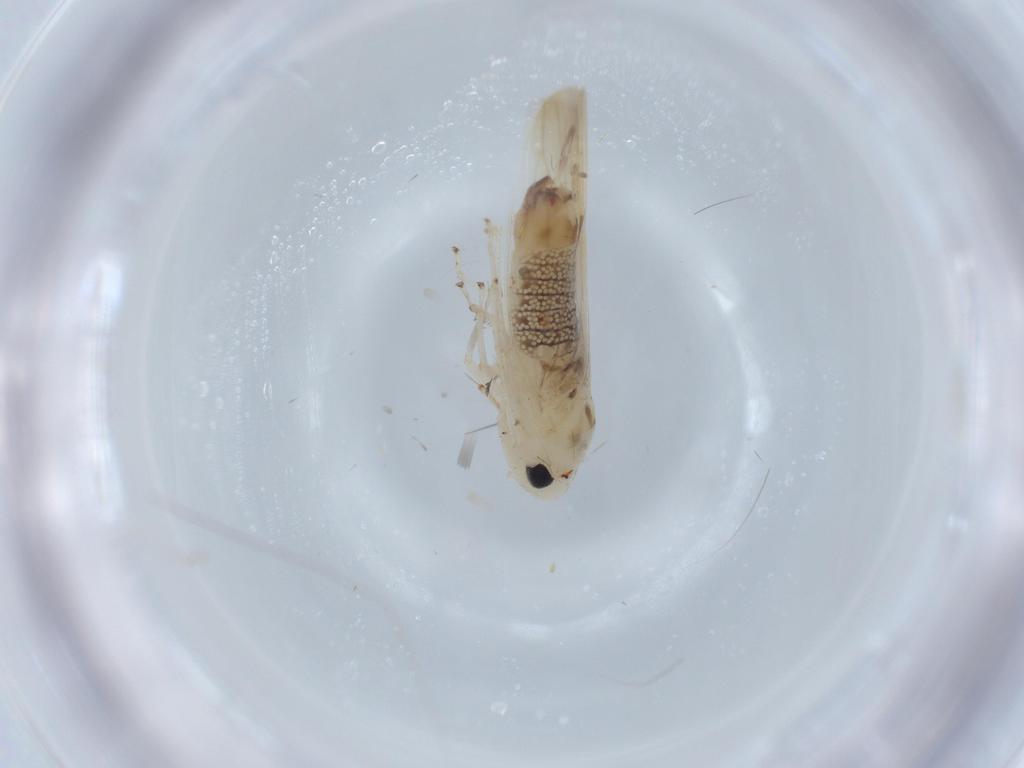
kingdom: Animalia
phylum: Arthropoda
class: Insecta
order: Hemiptera
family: Cicadellidae
